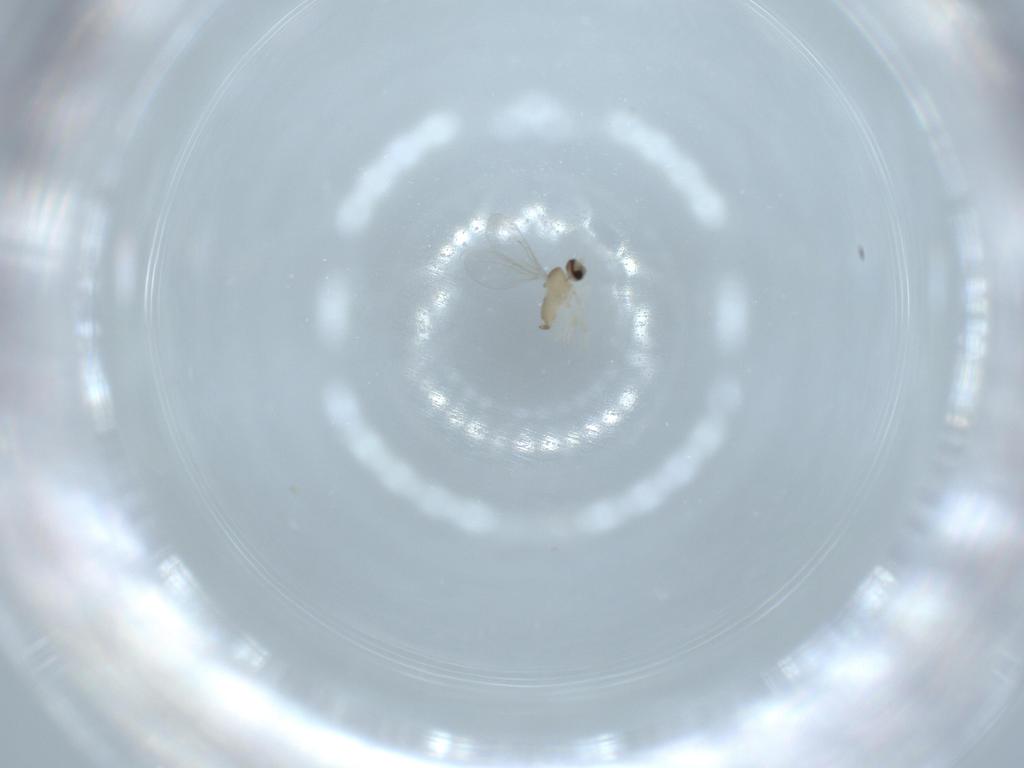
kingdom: Animalia
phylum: Arthropoda
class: Insecta
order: Diptera
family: Cecidomyiidae
